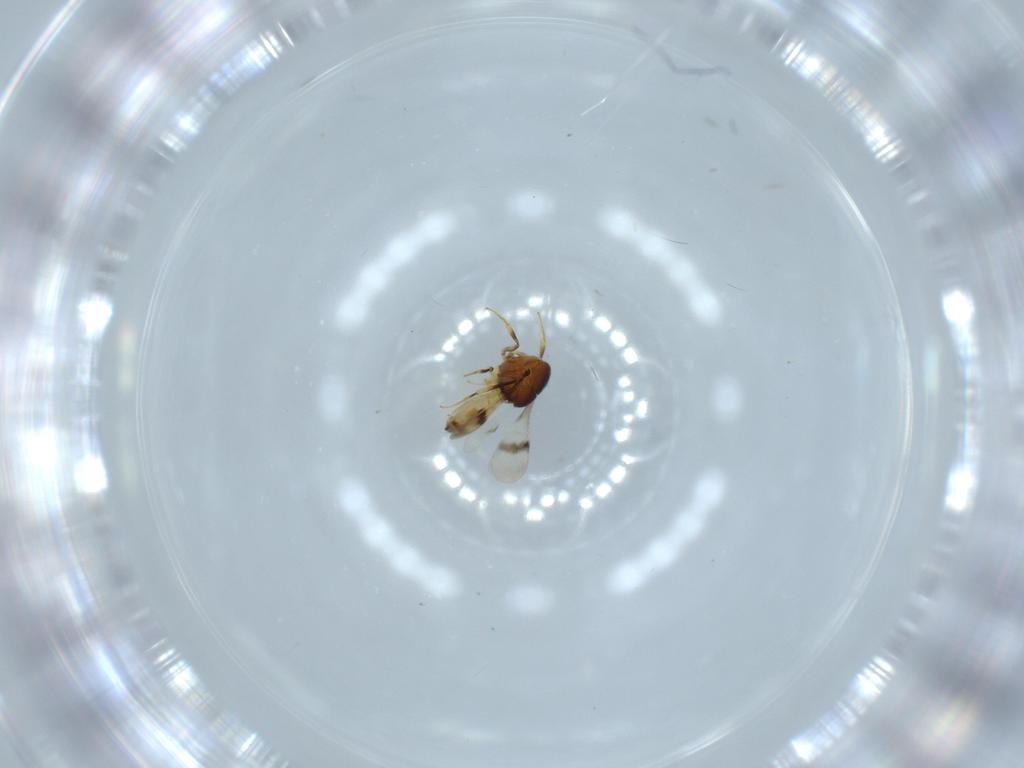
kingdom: Animalia
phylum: Arthropoda
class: Arachnida
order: Araneae
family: Pholcidae
